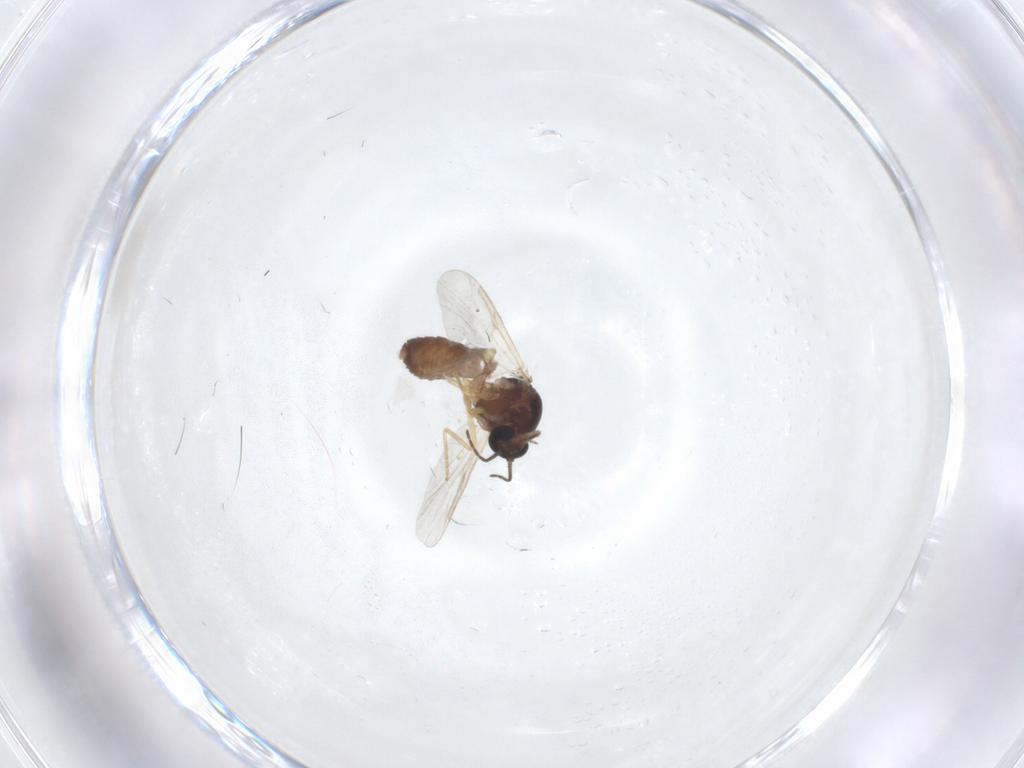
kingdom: Animalia
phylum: Arthropoda
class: Insecta
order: Diptera
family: Ceratopogonidae
